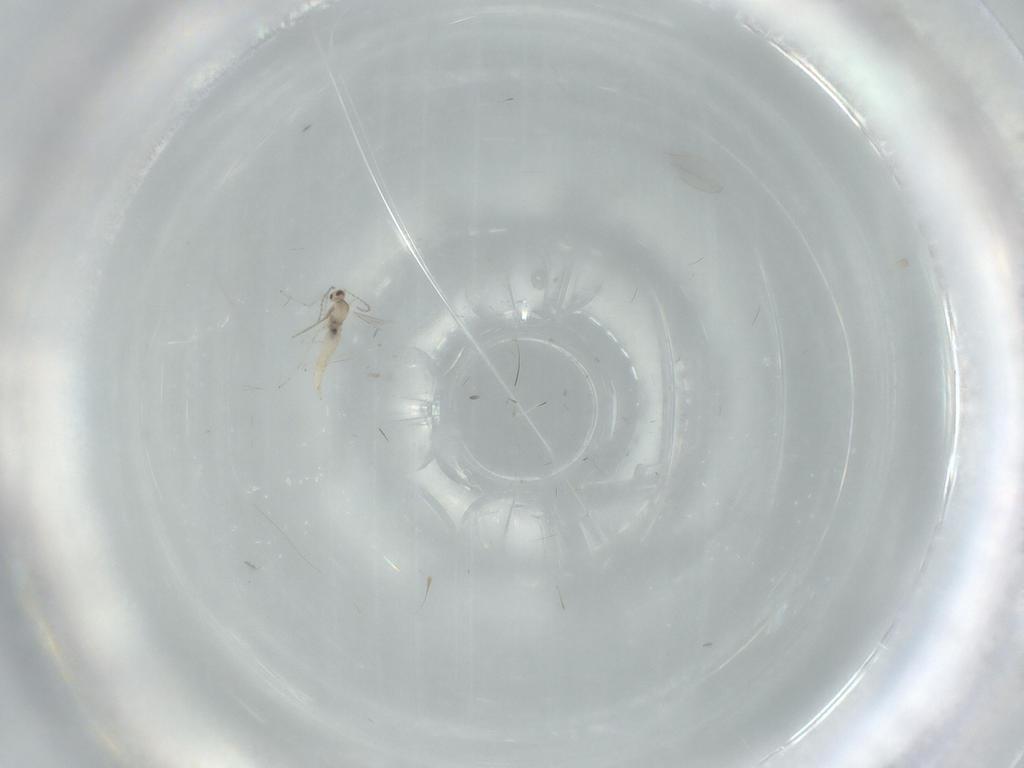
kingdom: Animalia
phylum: Arthropoda
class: Insecta
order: Diptera
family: Cecidomyiidae
